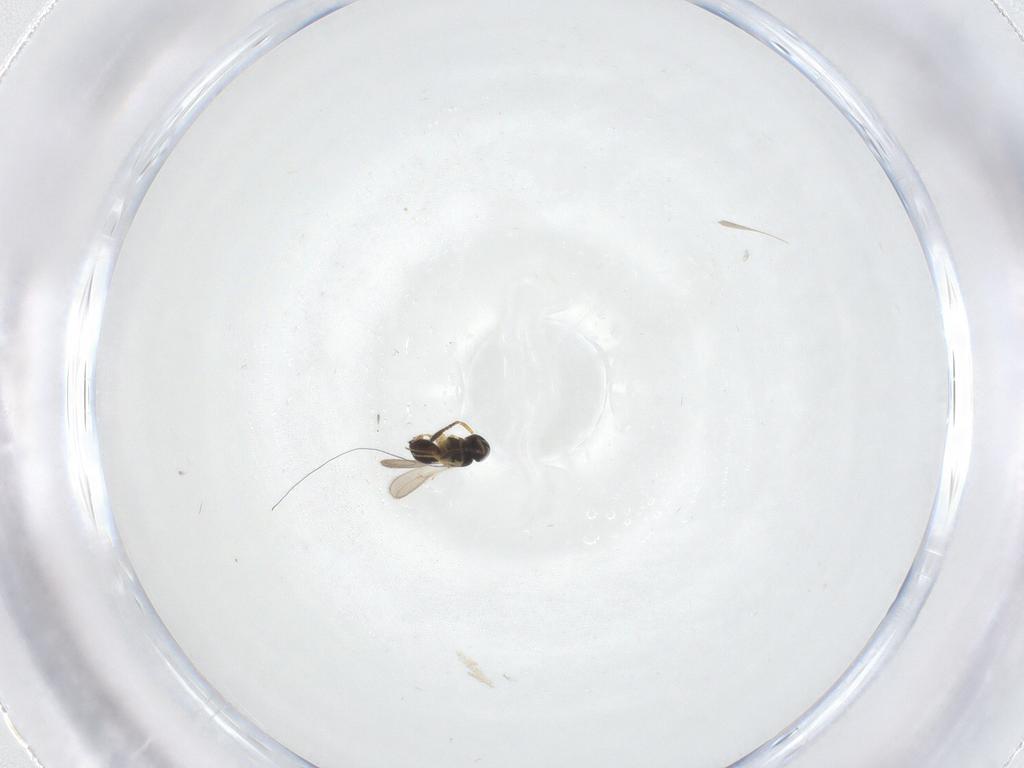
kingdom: Animalia
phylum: Arthropoda
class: Insecta
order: Hymenoptera
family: Scelionidae
